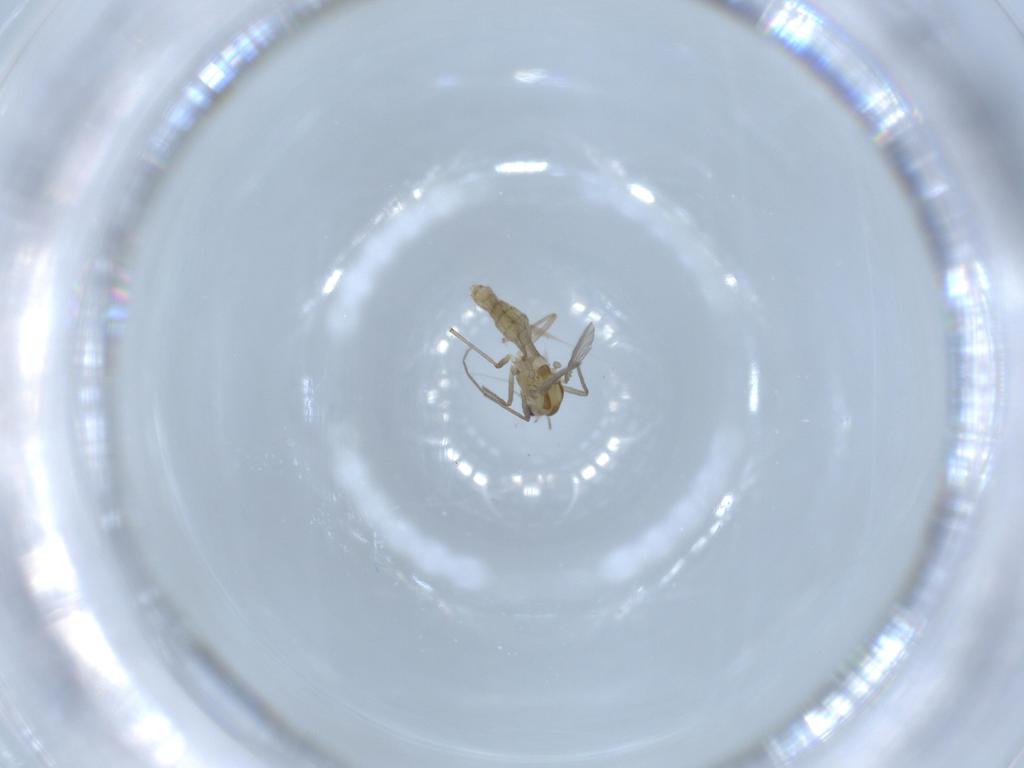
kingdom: Animalia
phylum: Arthropoda
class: Insecta
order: Diptera
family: Chironomidae
